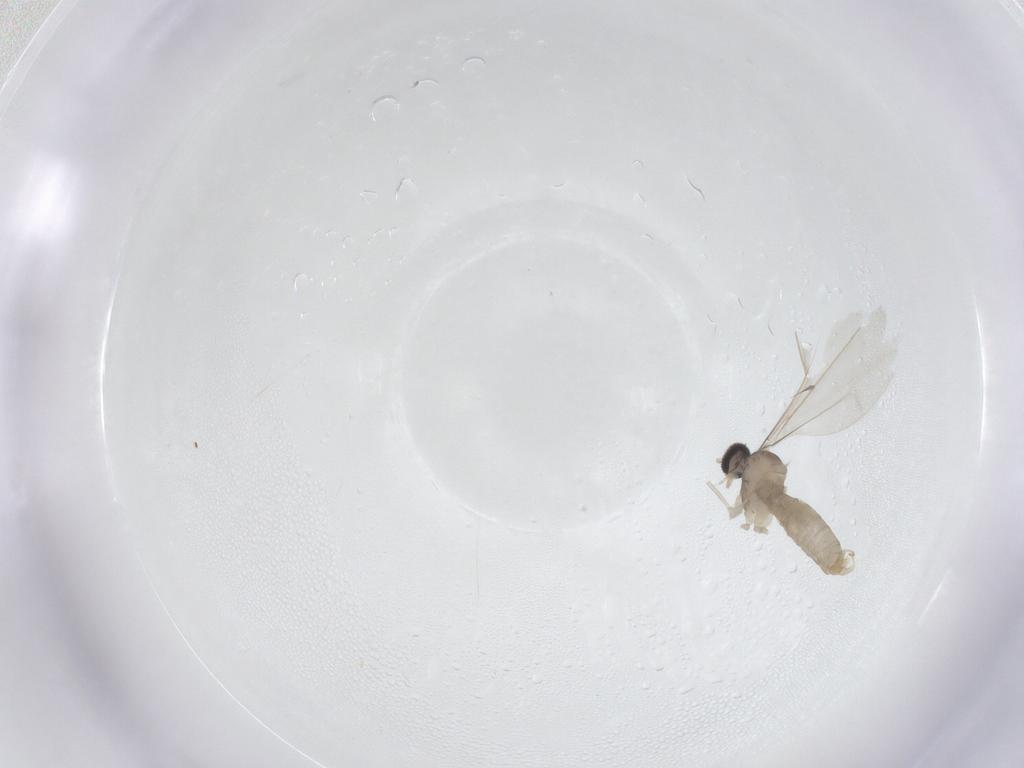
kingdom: Animalia
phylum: Arthropoda
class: Insecta
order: Diptera
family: Cecidomyiidae
